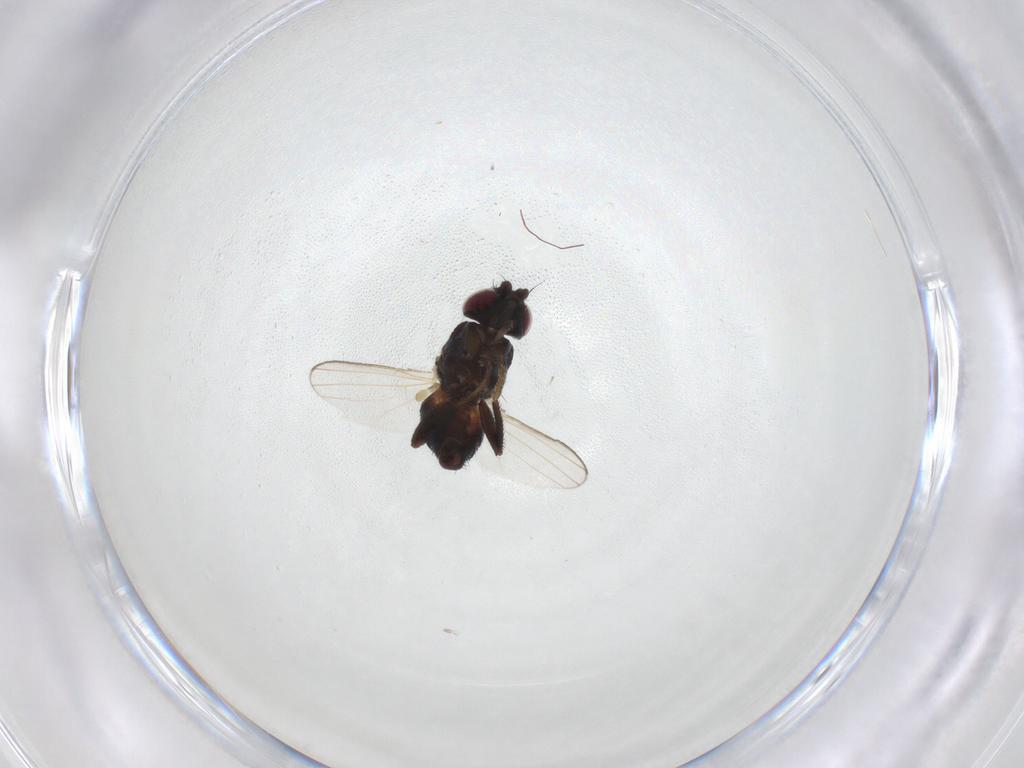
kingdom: Animalia
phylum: Arthropoda
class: Insecta
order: Diptera
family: Milichiidae
